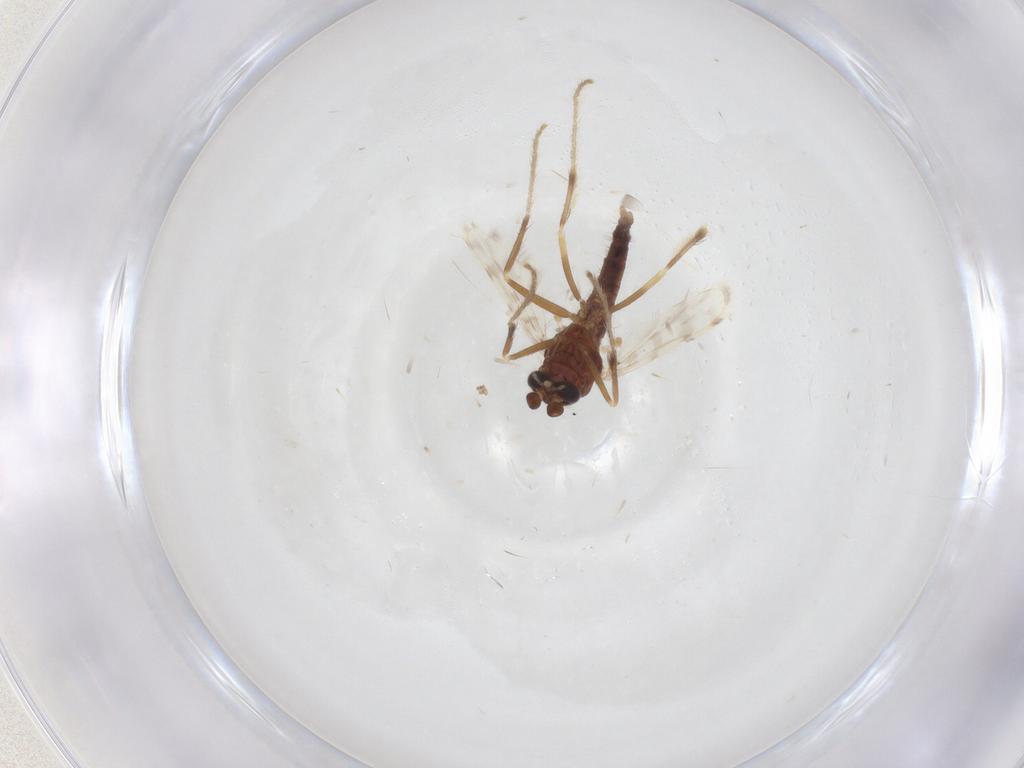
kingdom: Animalia
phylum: Arthropoda
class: Insecta
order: Diptera
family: Corethrellidae
